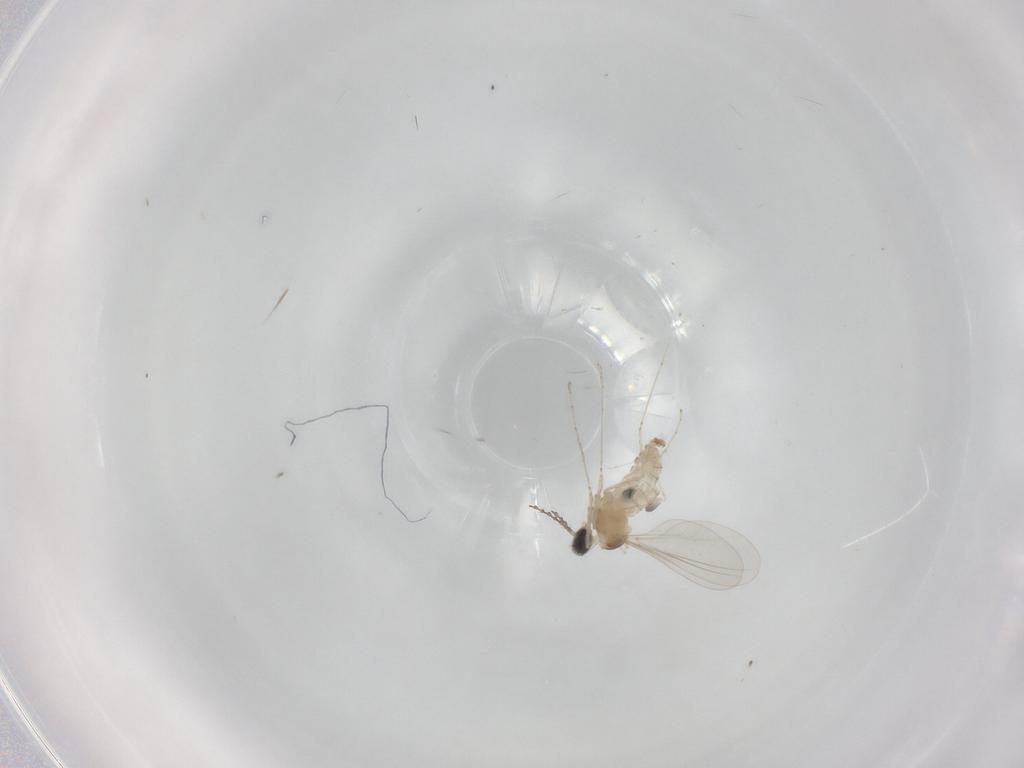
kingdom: Animalia
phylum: Arthropoda
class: Insecta
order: Diptera
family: Cecidomyiidae
